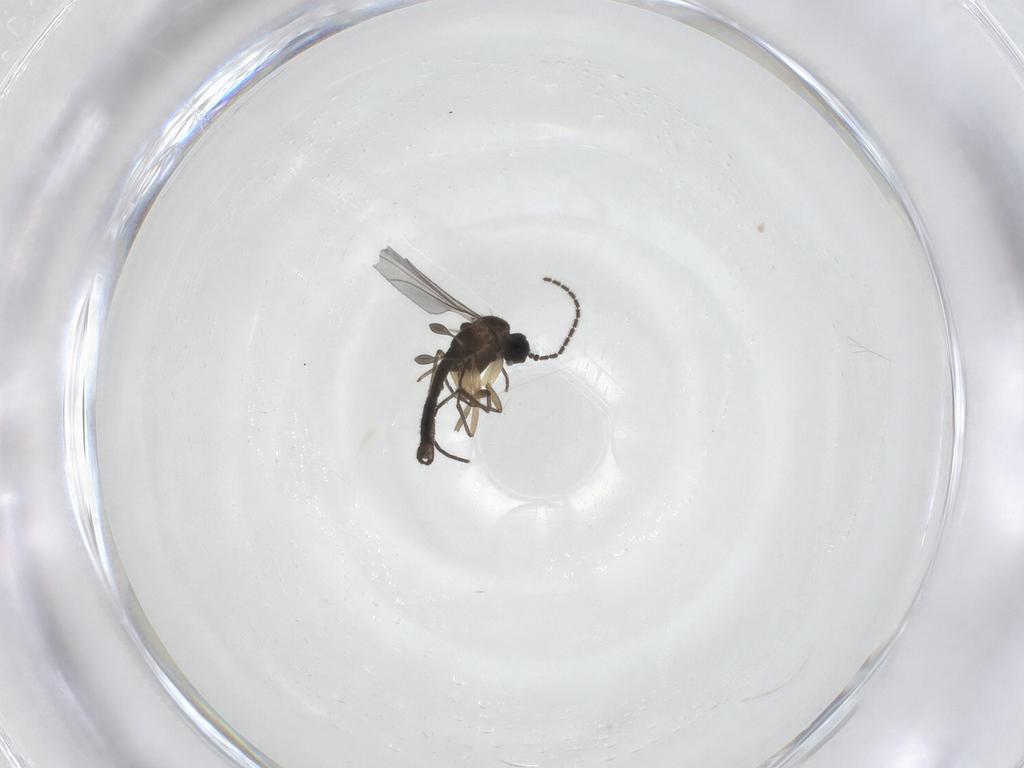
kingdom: Animalia
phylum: Arthropoda
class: Insecta
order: Diptera
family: Sciaridae
